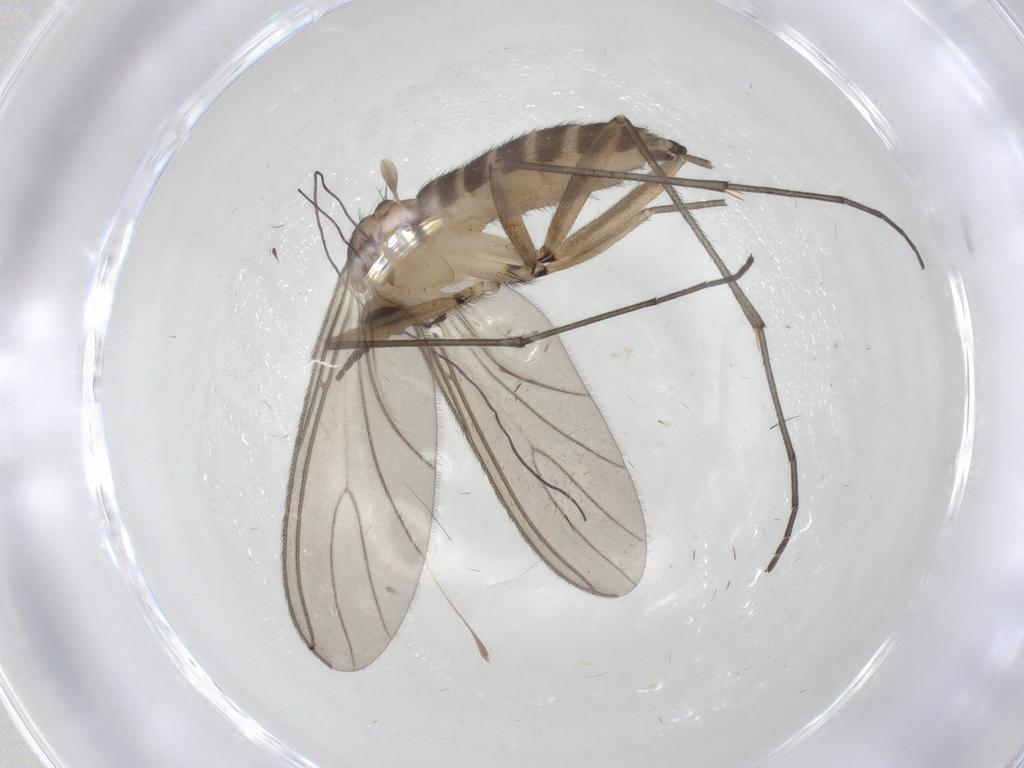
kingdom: Animalia
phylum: Arthropoda
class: Insecta
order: Diptera
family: Sciaridae
